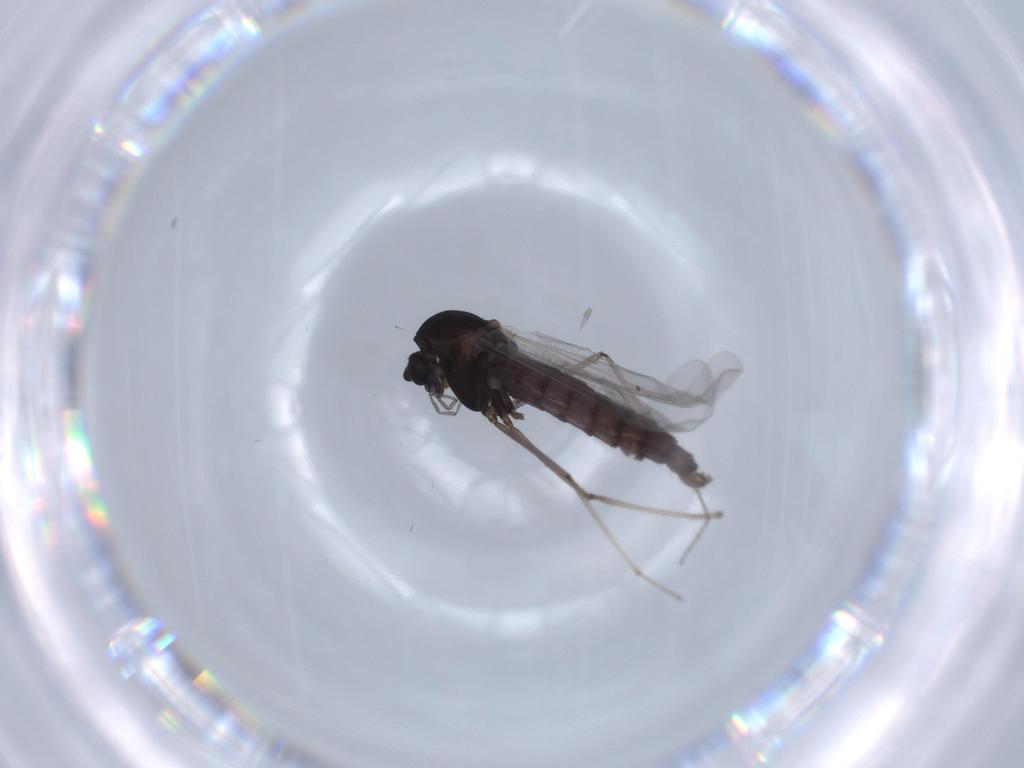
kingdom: Animalia
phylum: Arthropoda
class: Insecta
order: Diptera
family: Chironomidae
